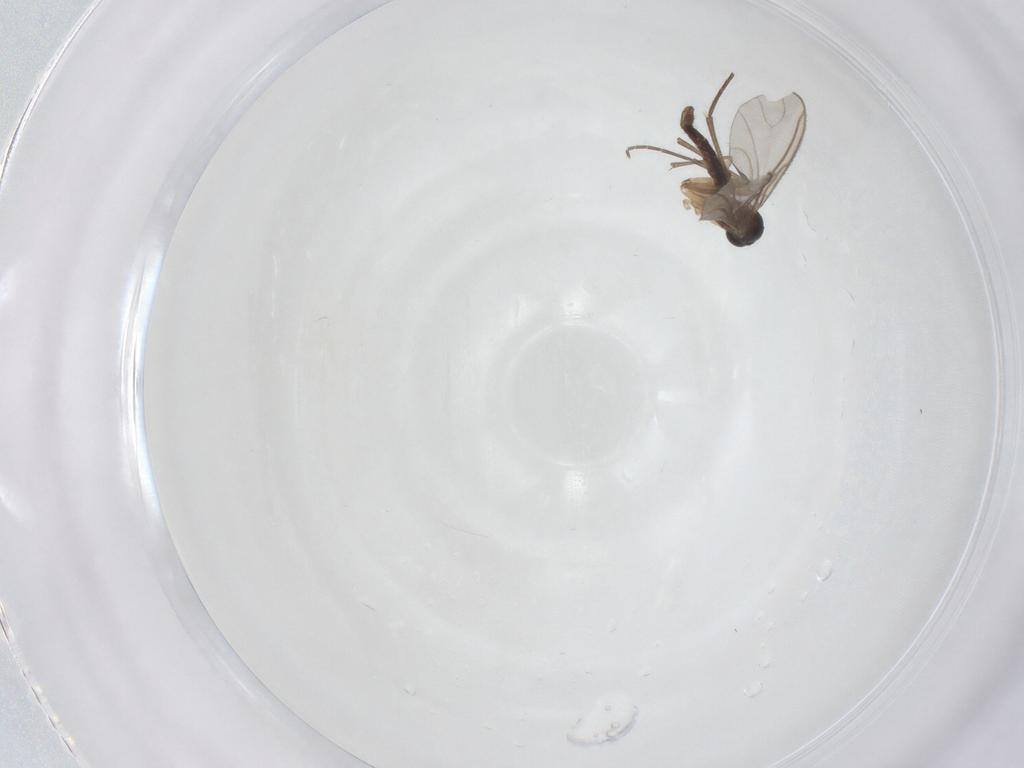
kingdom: Animalia
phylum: Arthropoda
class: Insecta
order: Diptera
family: Sciaridae
